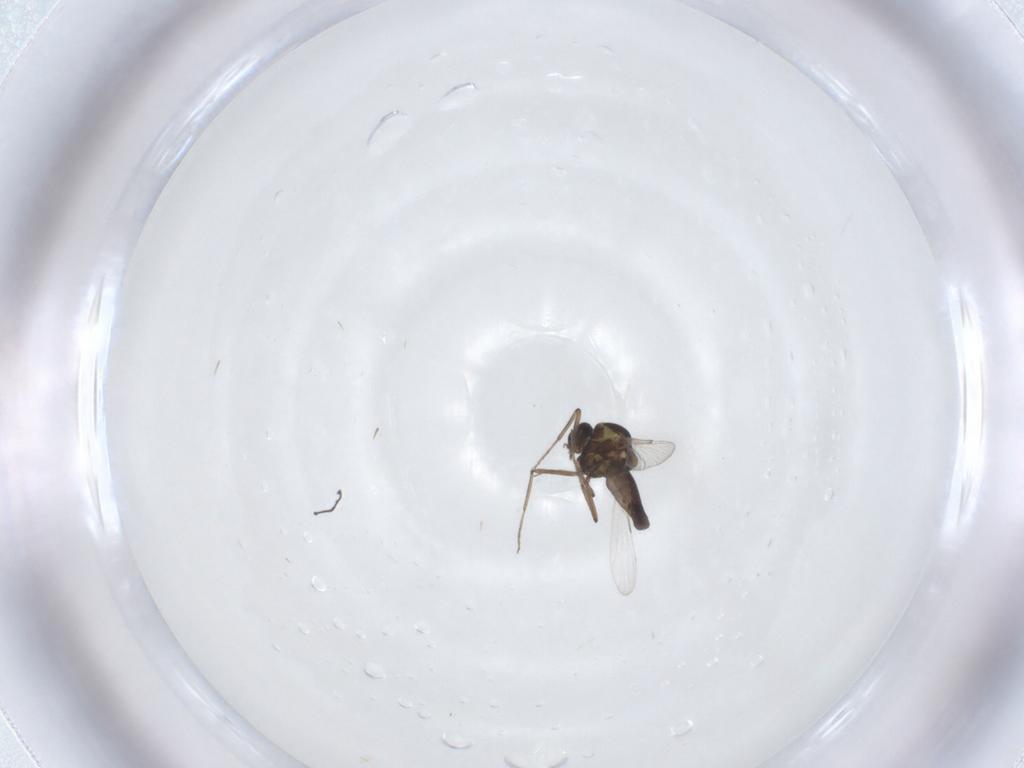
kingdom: Animalia
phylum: Arthropoda
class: Insecta
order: Diptera
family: Ceratopogonidae
